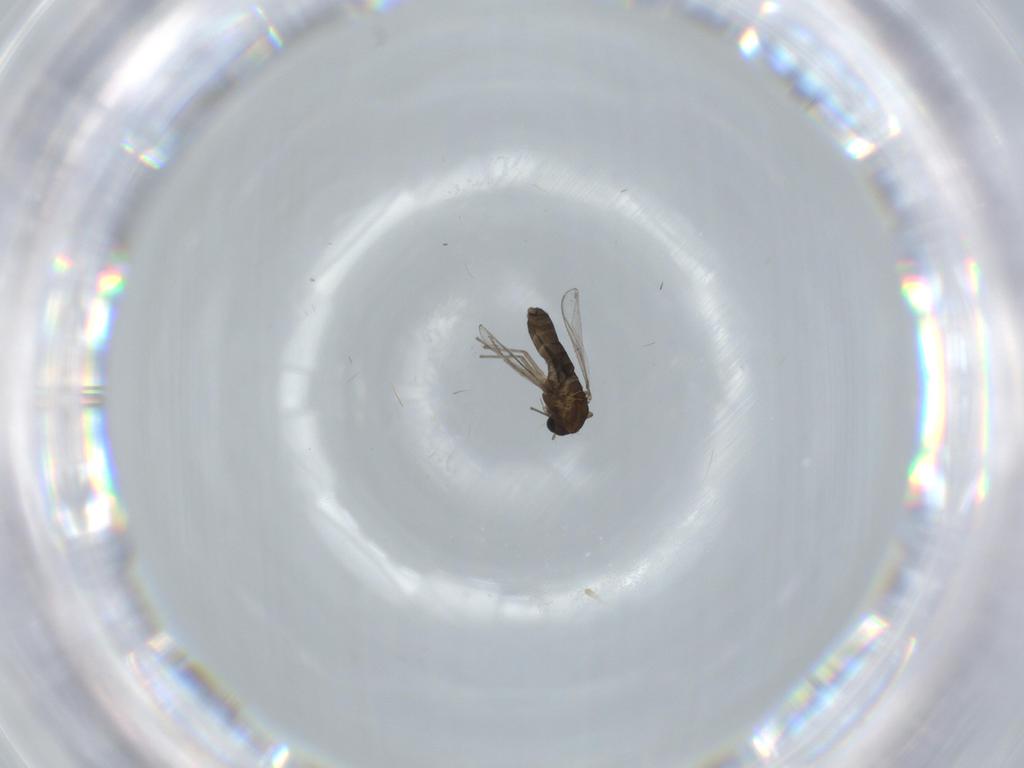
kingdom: Animalia
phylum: Arthropoda
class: Insecta
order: Diptera
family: Chironomidae
